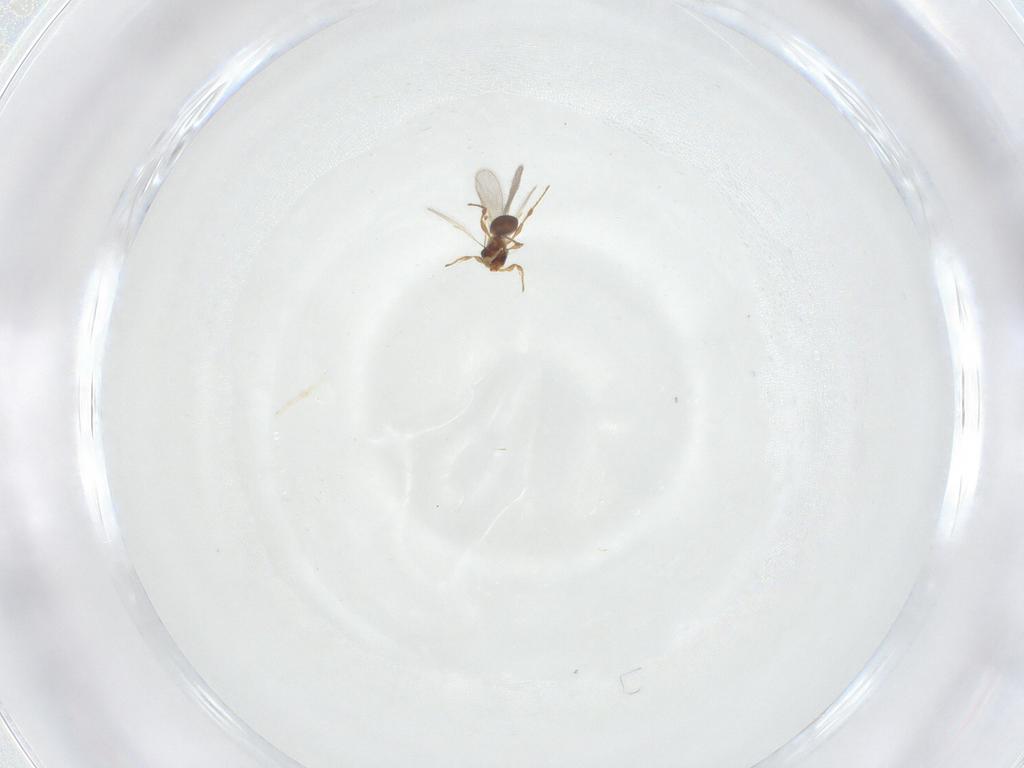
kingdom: Animalia
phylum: Arthropoda
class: Insecta
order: Hymenoptera
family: Diapriidae
